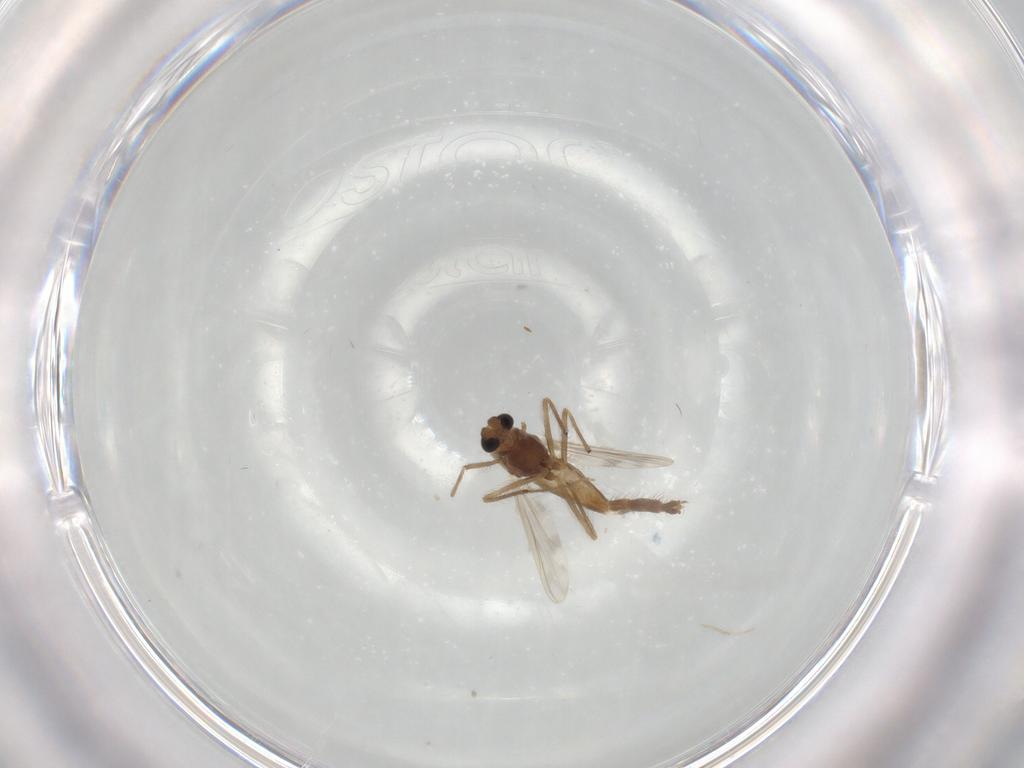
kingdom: Animalia
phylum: Arthropoda
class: Insecta
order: Diptera
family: Chironomidae
